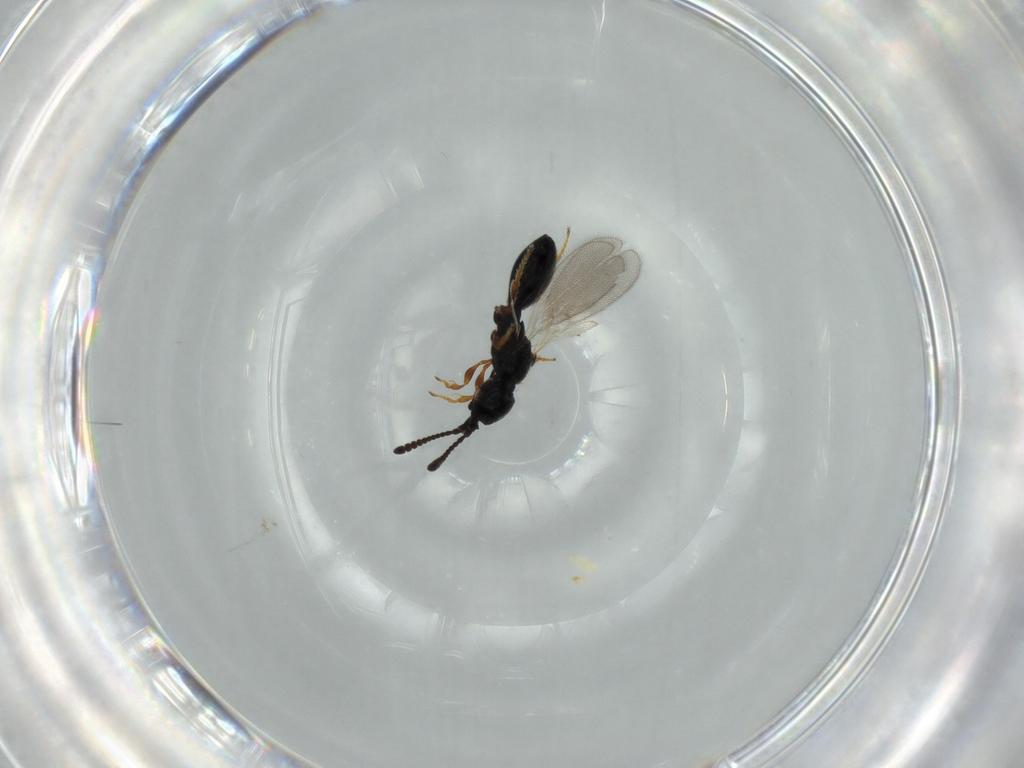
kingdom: Animalia
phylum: Arthropoda
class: Insecta
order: Hymenoptera
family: Diapriidae
